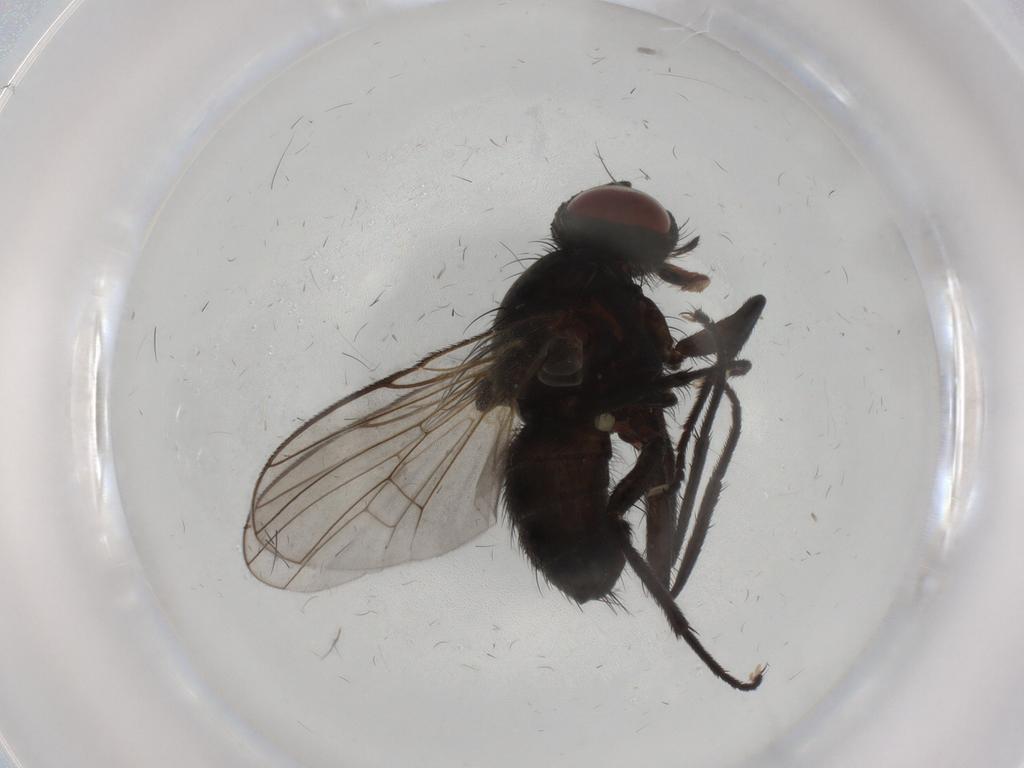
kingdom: Animalia
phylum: Arthropoda
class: Insecta
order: Diptera
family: Muscidae
